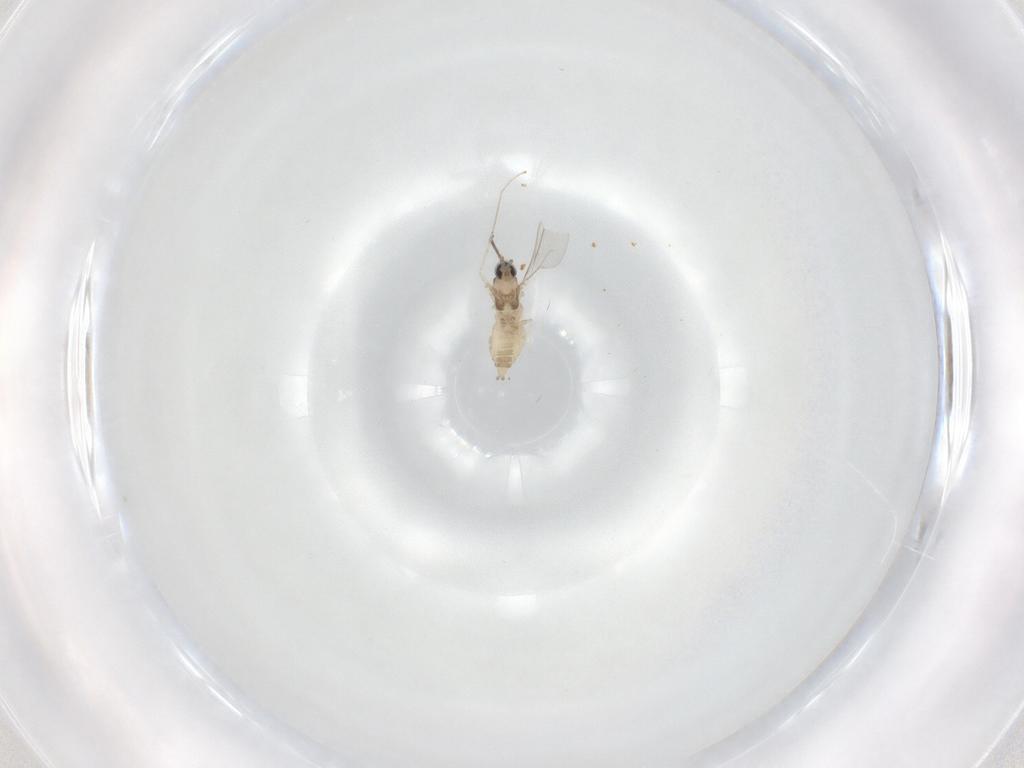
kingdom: Animalia
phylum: Arthropoda
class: Insecta
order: Diptera
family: Cecidomyiidae
